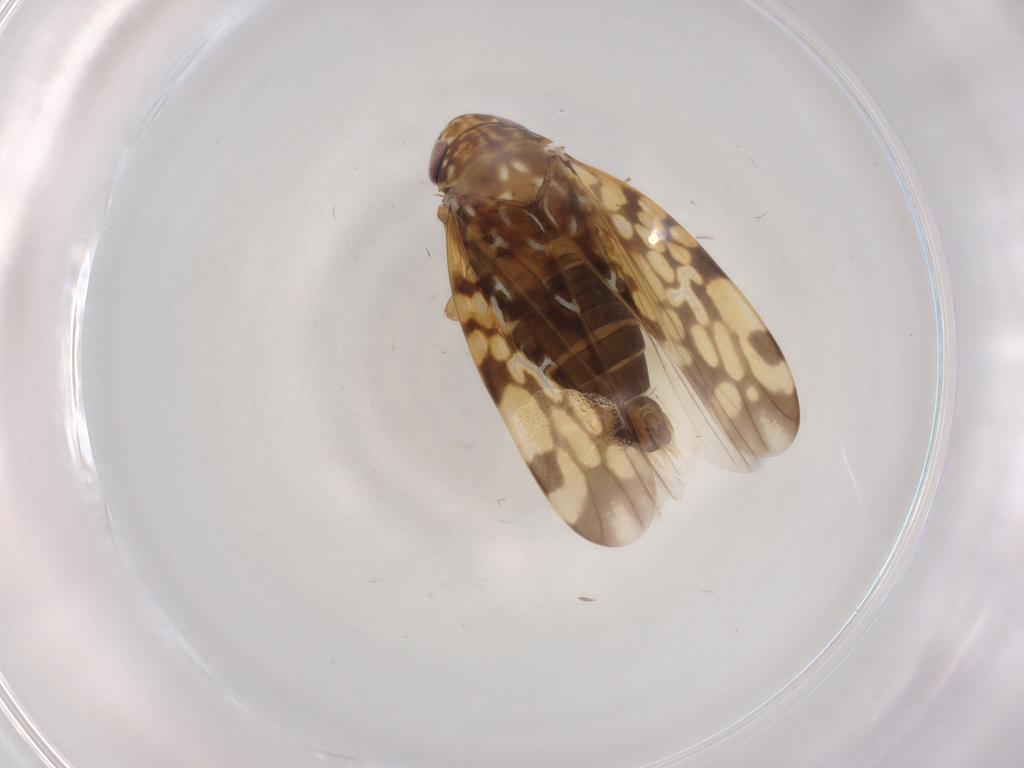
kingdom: Animalia
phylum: Arthropoda
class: Insecta
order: Hemiptera
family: Cicadellidae
